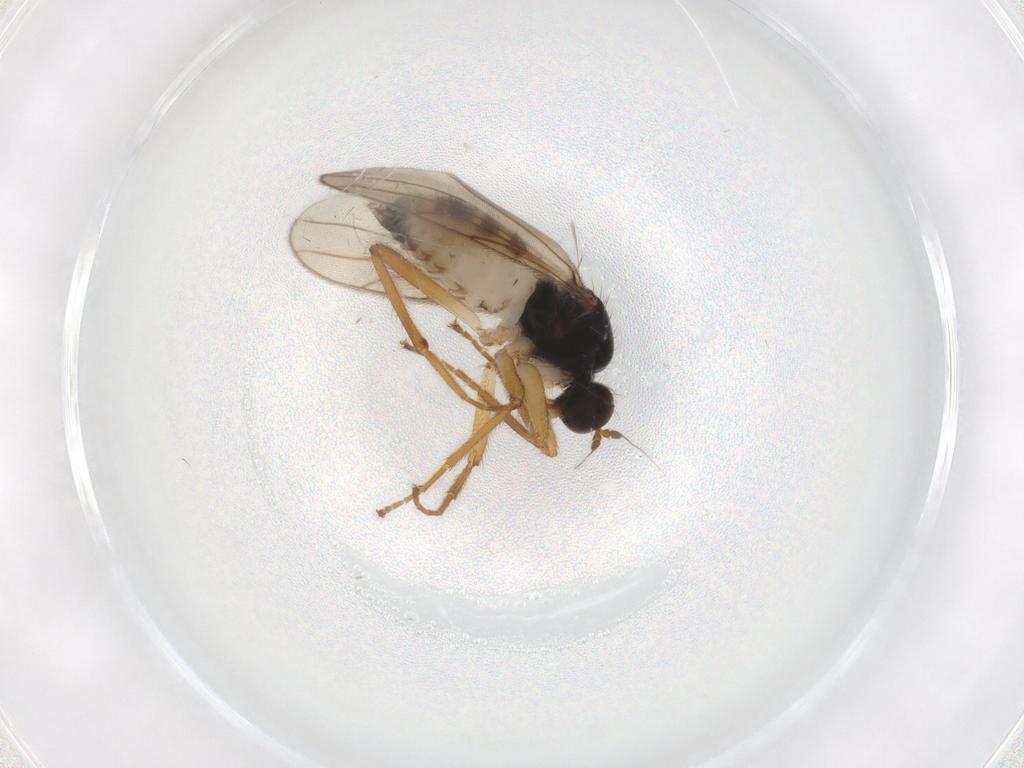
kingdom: Animalia
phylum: Arthropoda
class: Insecta
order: Diptera
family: Hybotidae
